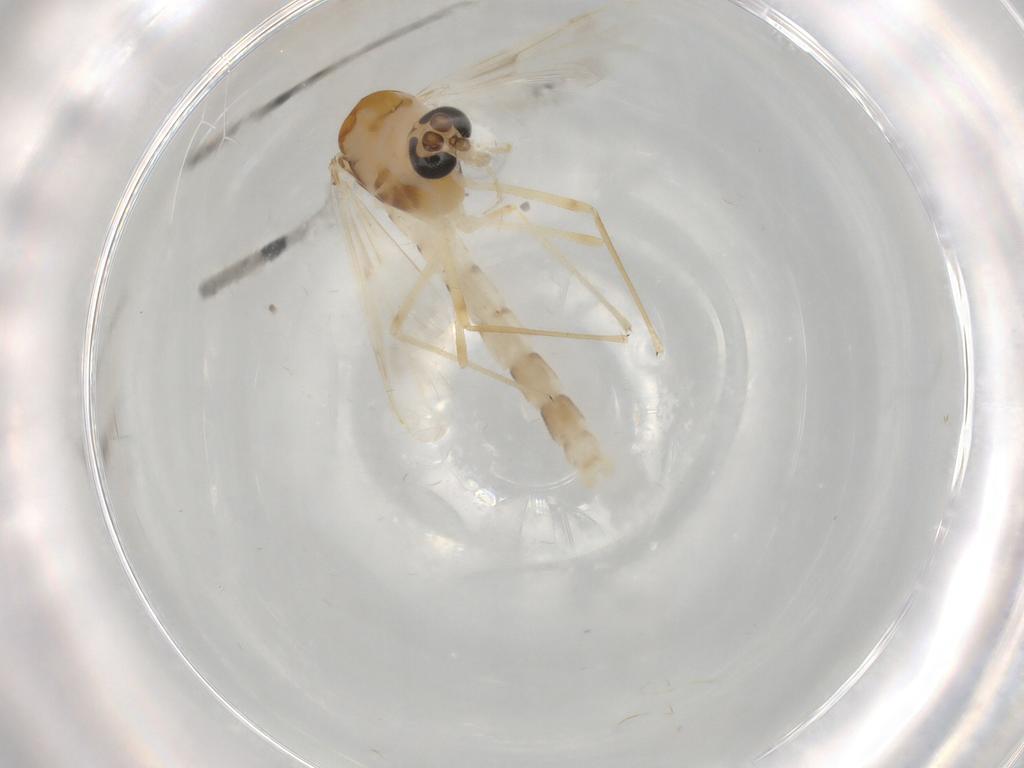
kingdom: Animalia
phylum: Arthropoda
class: Insecta
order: Diptera
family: Chironomidae
